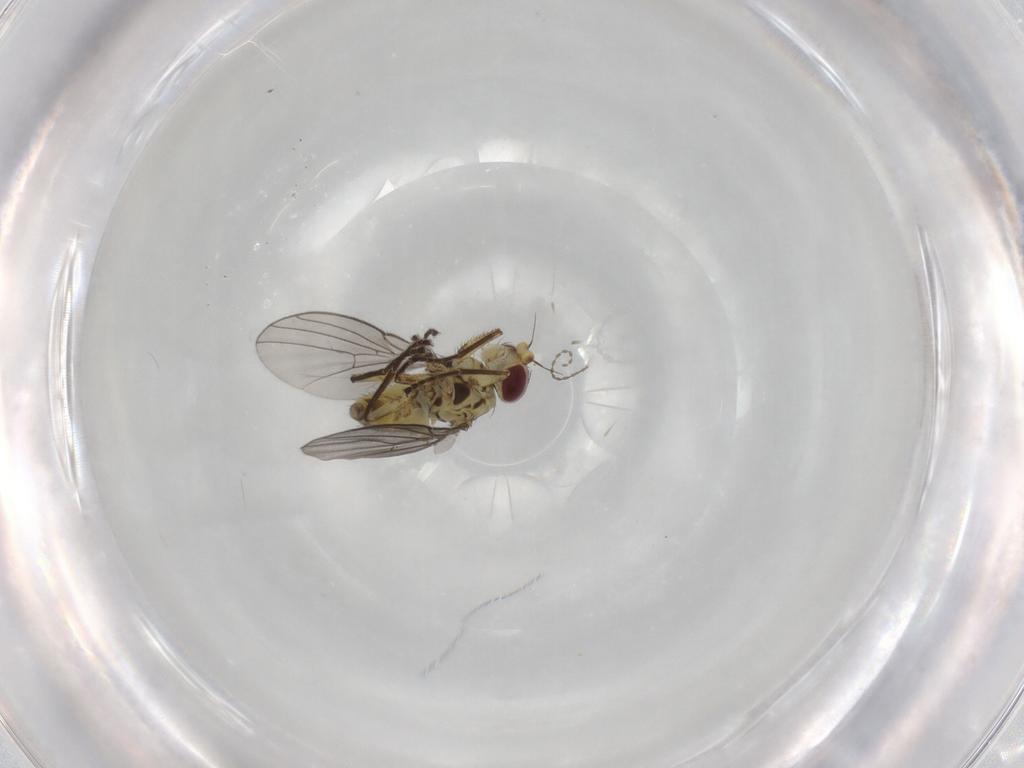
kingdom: Animalia
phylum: Arthropoda
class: Insecta
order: Diptera
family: Agromyzidae
